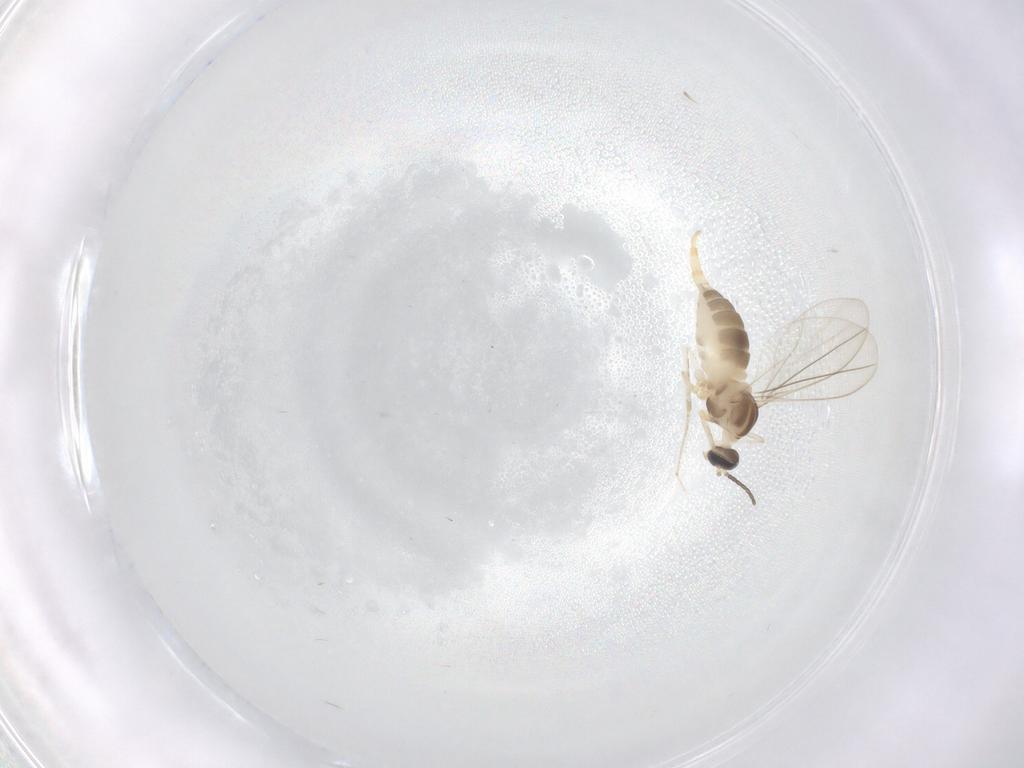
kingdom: Animalia
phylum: Arthropoda
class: Insecta
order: Diptera
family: Cecidomyiidae
